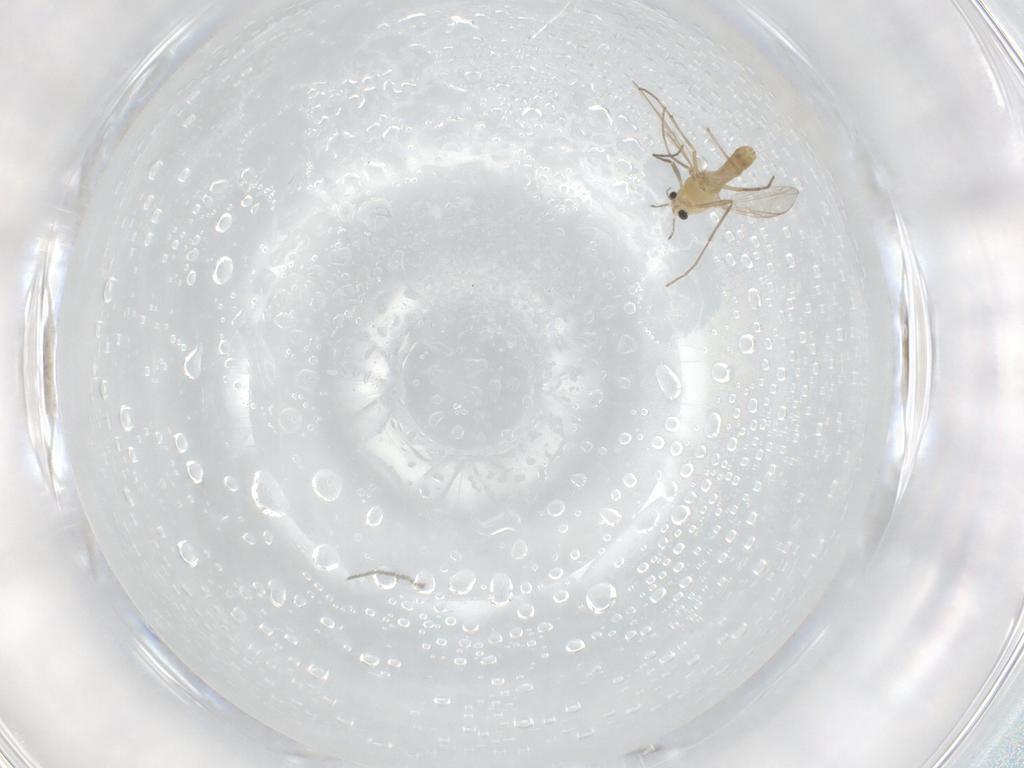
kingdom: Animalia
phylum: Arthropoda
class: Insecta
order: Diptera
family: Chironomidae
